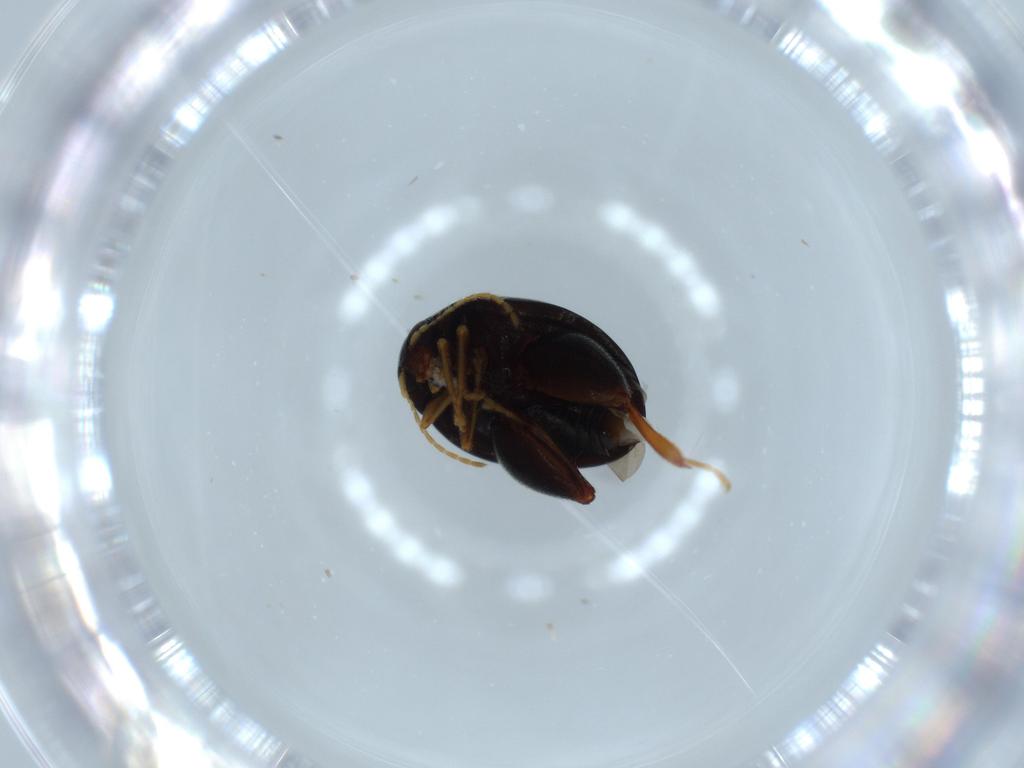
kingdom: Animalia
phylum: Arthropoda
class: Insecta
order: Coleoptera
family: Chrysomelidae
